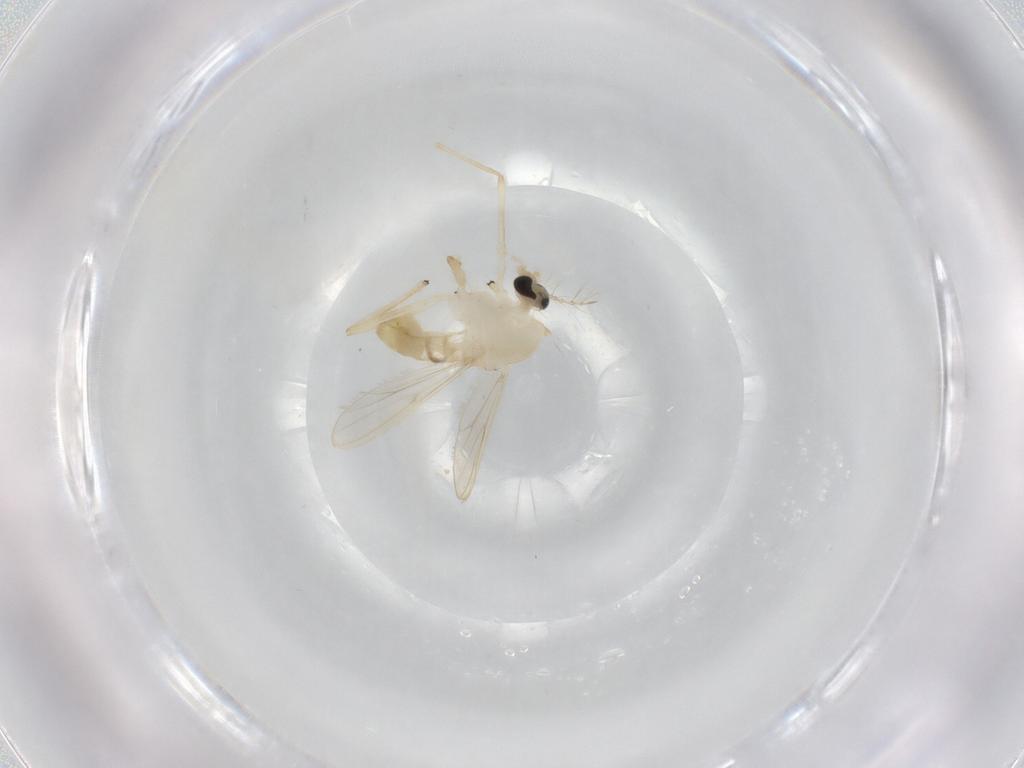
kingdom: Animalia
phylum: Arthropoda
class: Insecta
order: Diptera
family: Chironomidae
